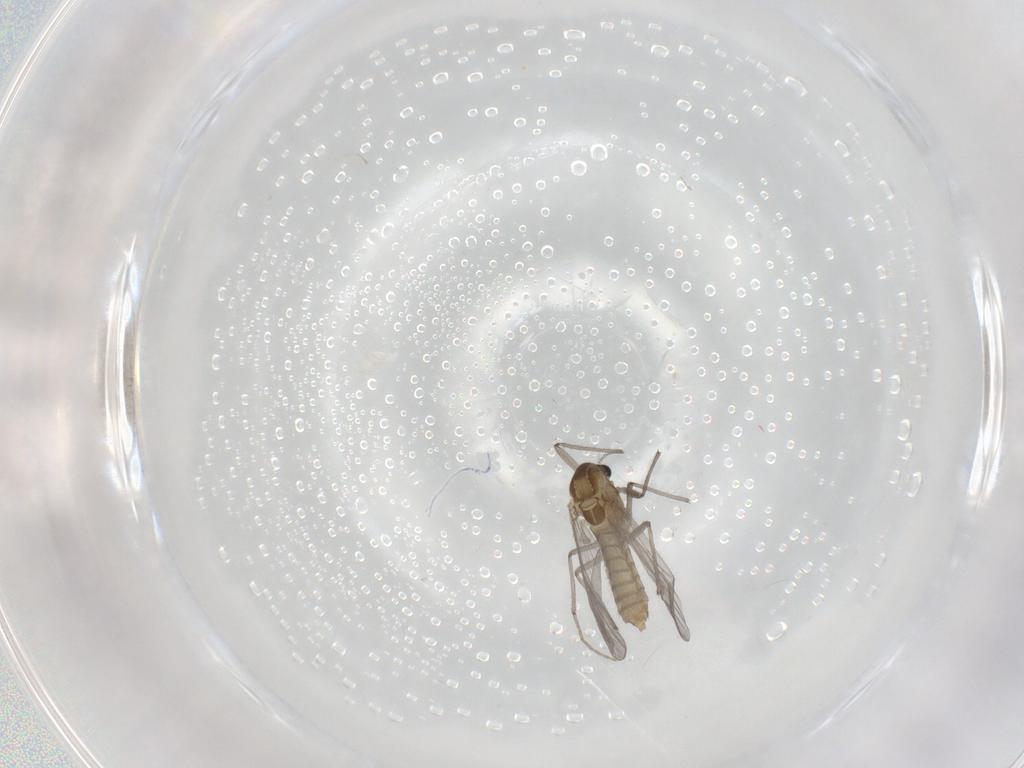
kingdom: Animalia
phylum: Arthropoda
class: Insecta
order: Diptera
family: Chironomidae
